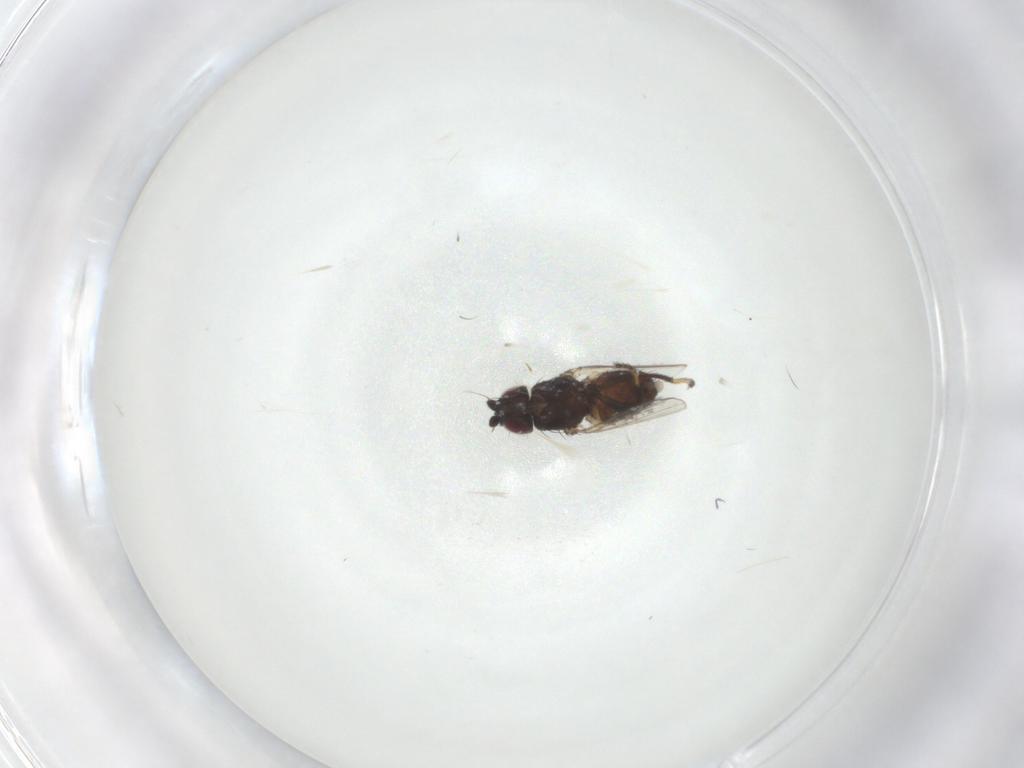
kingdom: Animalia
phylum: Arthropoda
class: Insecta
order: Diptera
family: Milichiidae
